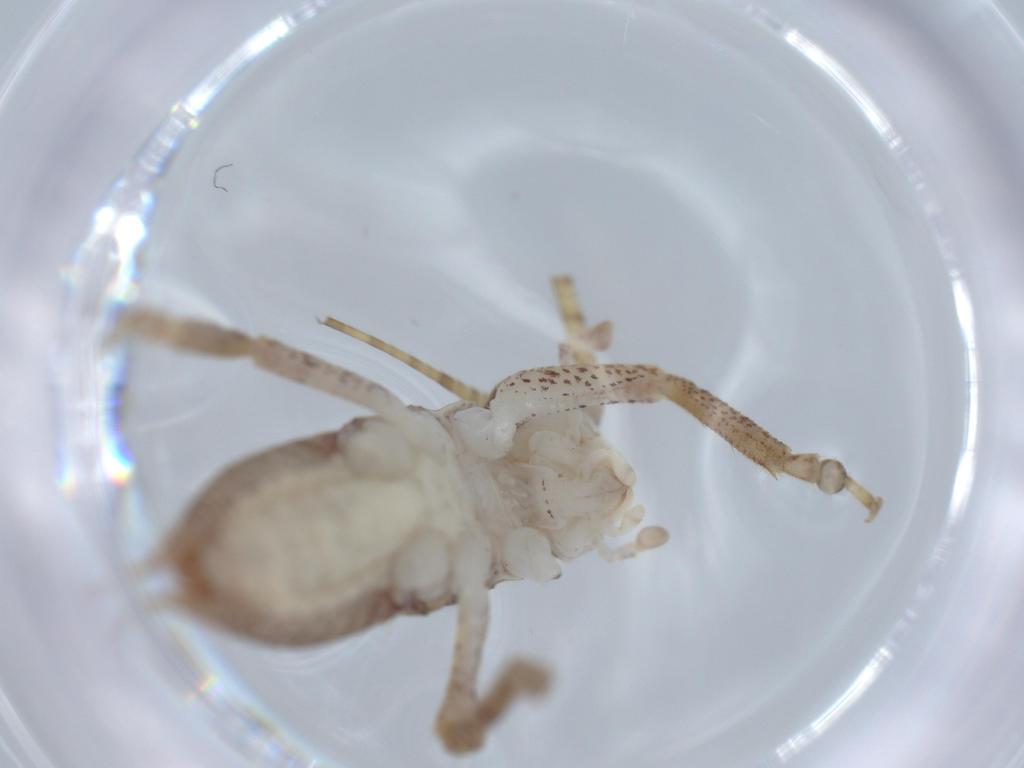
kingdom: Animalia
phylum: Arthropoda
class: Insecta
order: Orthoptera
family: Gryllidae
